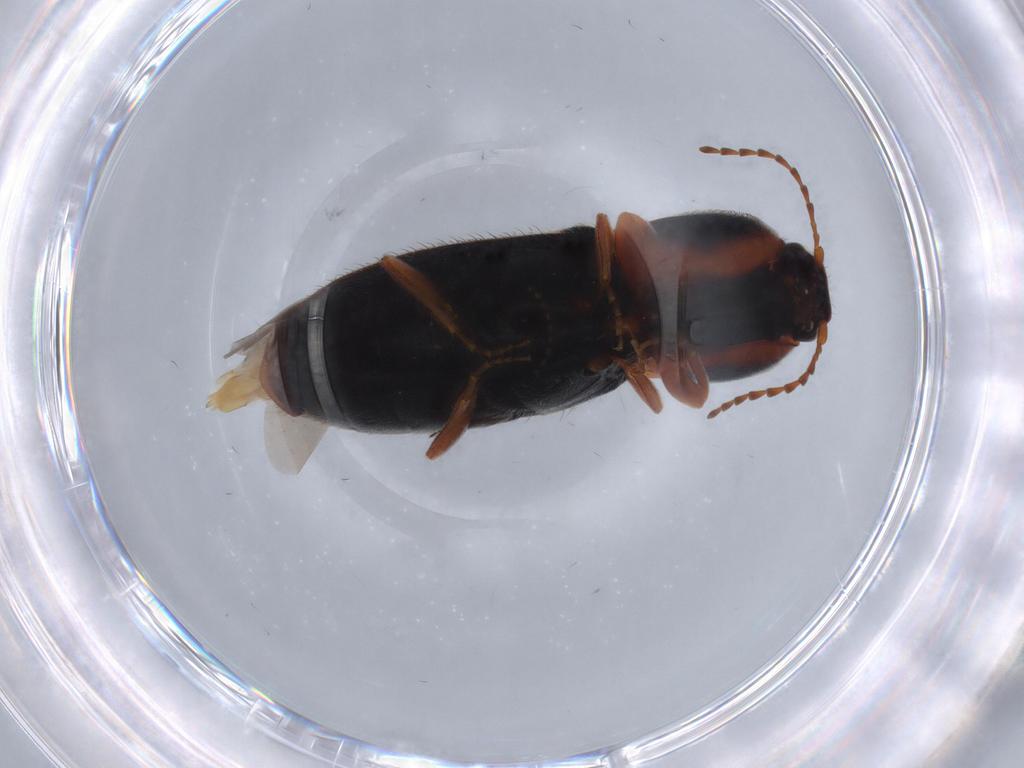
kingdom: Animalia
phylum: Arthropoda
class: Insecta
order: Coleoptera
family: Elateridae
